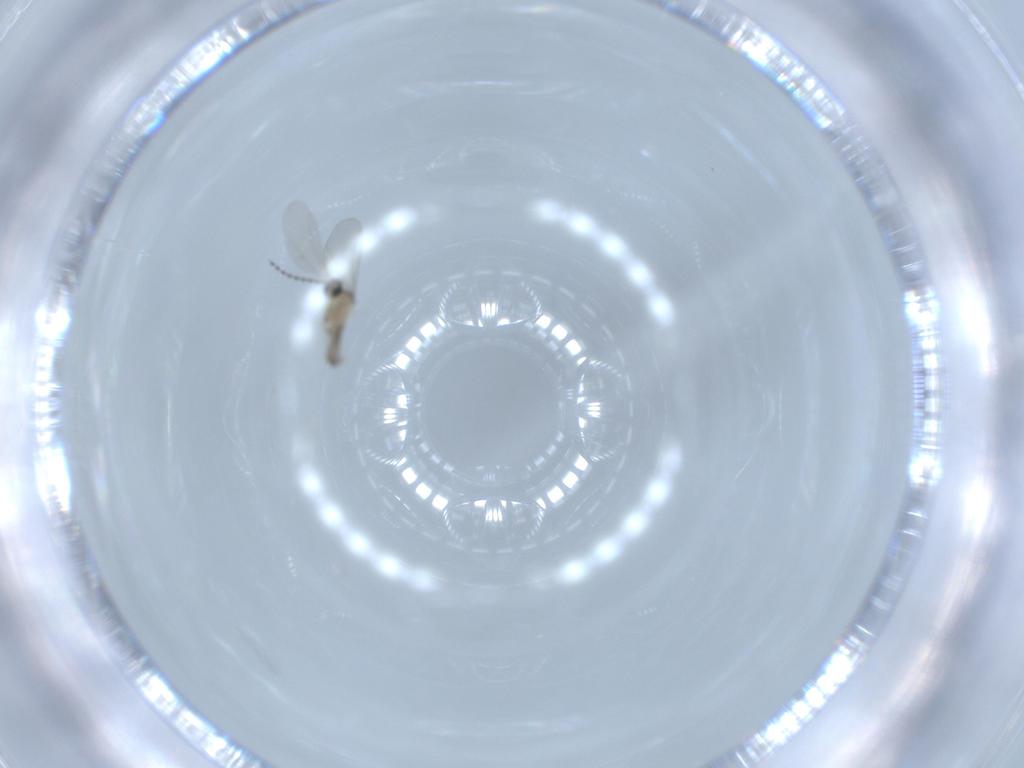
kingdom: Animalia
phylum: Arthropoda
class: Insecta
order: Diptera
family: Cecidomyiidae
